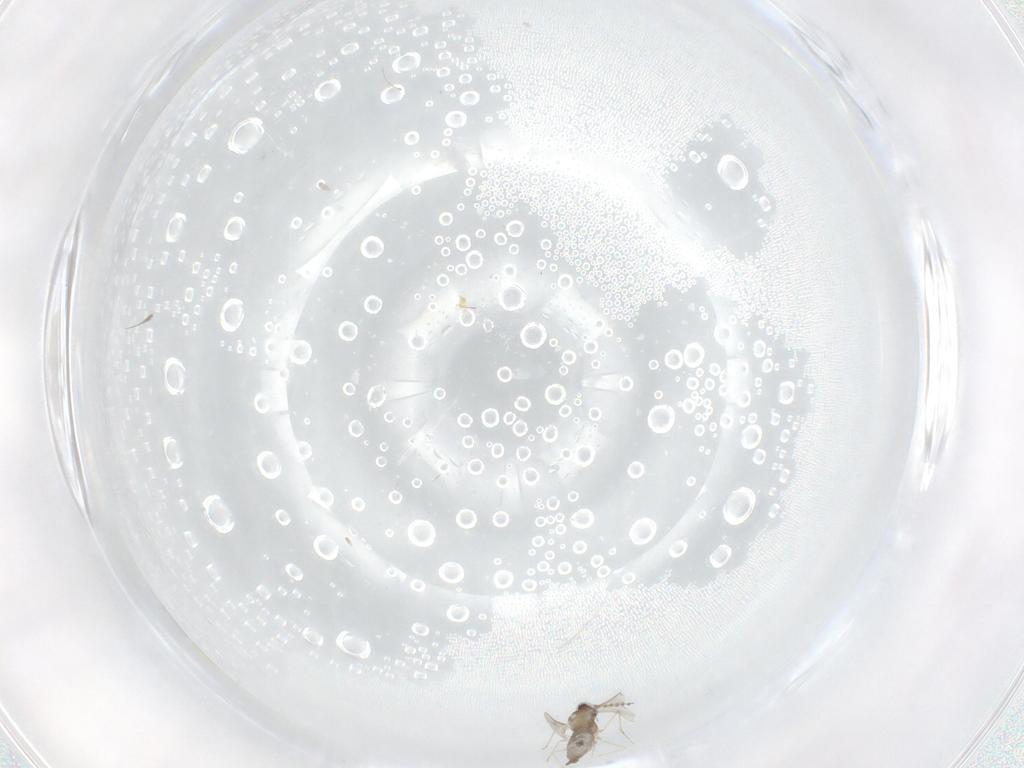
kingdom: Animalia
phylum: Arthropoda
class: Insecta
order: Diptera
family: Cecidomyiidae
